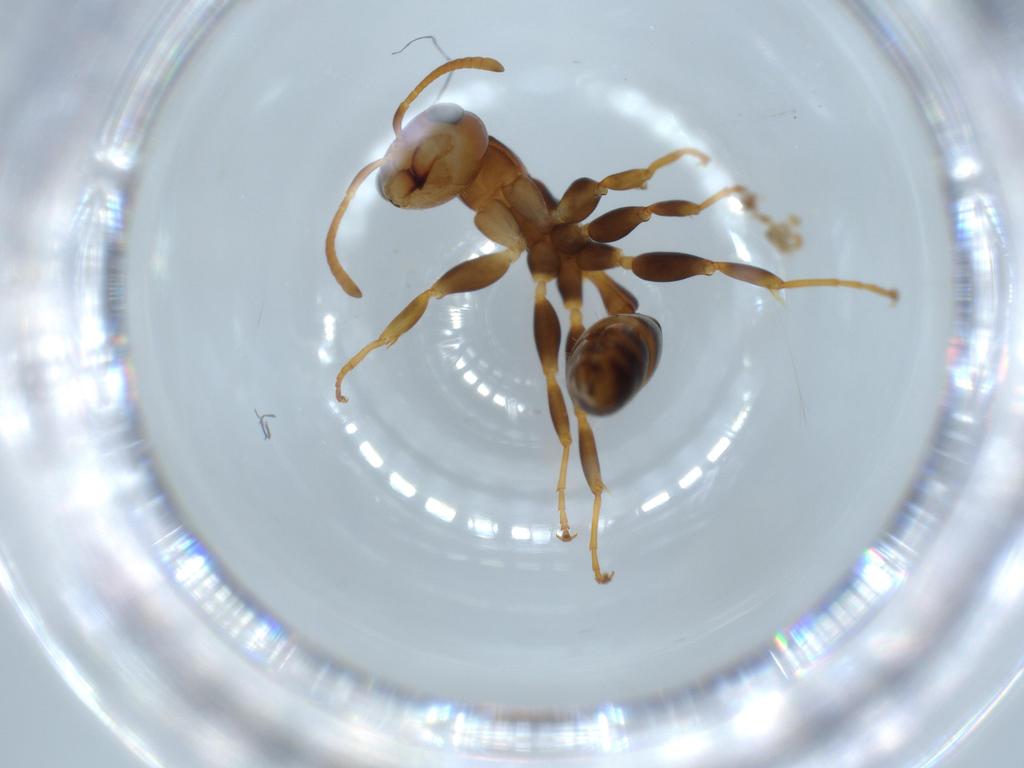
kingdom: Animalia
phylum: Arthropoda
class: Insecta
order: Hymenoptera
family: Formicidae
